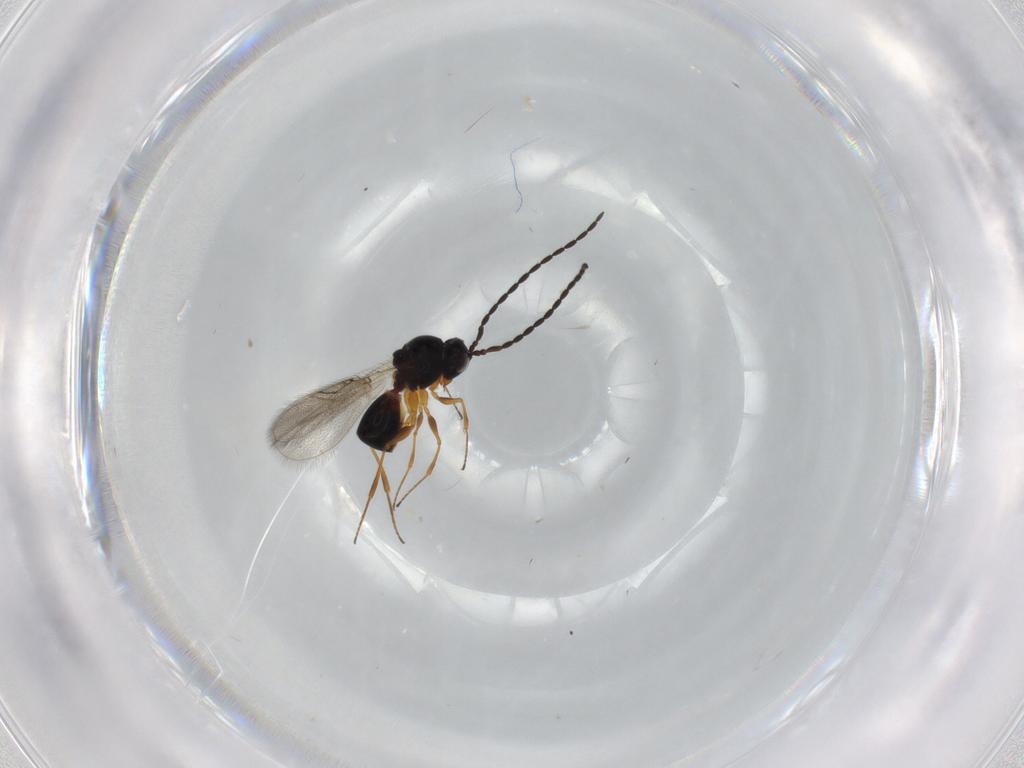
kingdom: Animalia
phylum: Arthropoda
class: Insecta
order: Hymenoptera
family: Figitidae
